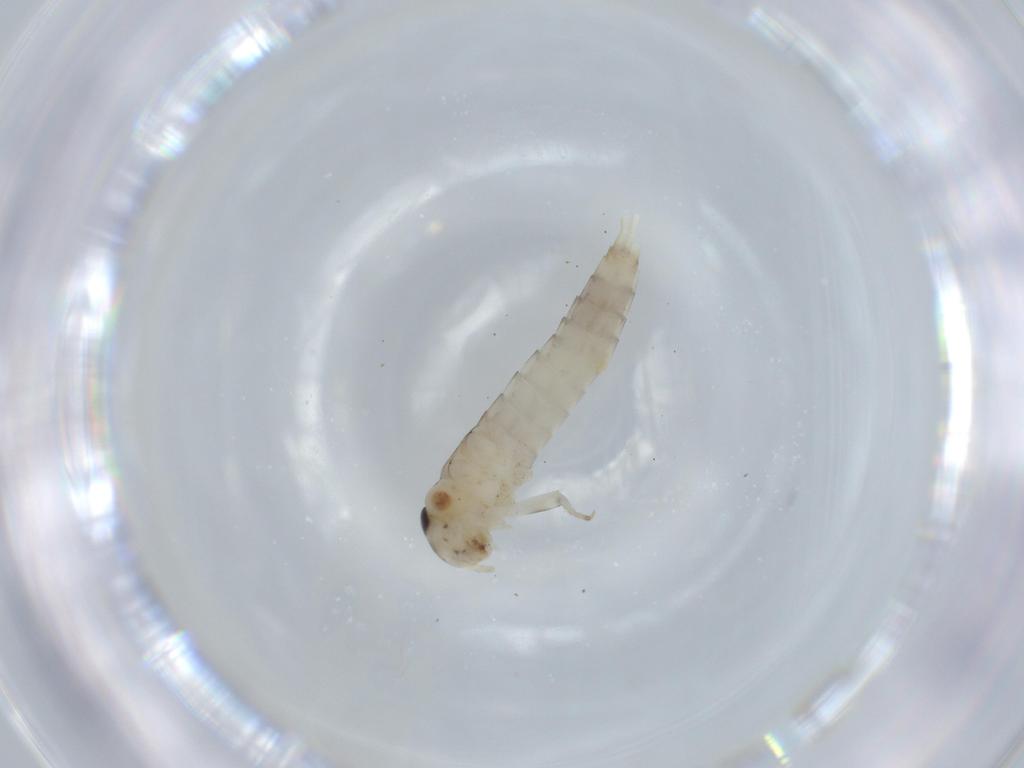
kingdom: Animalia
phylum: Arthropoda
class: Insecta
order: Ephemeroptera
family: Baetidae
